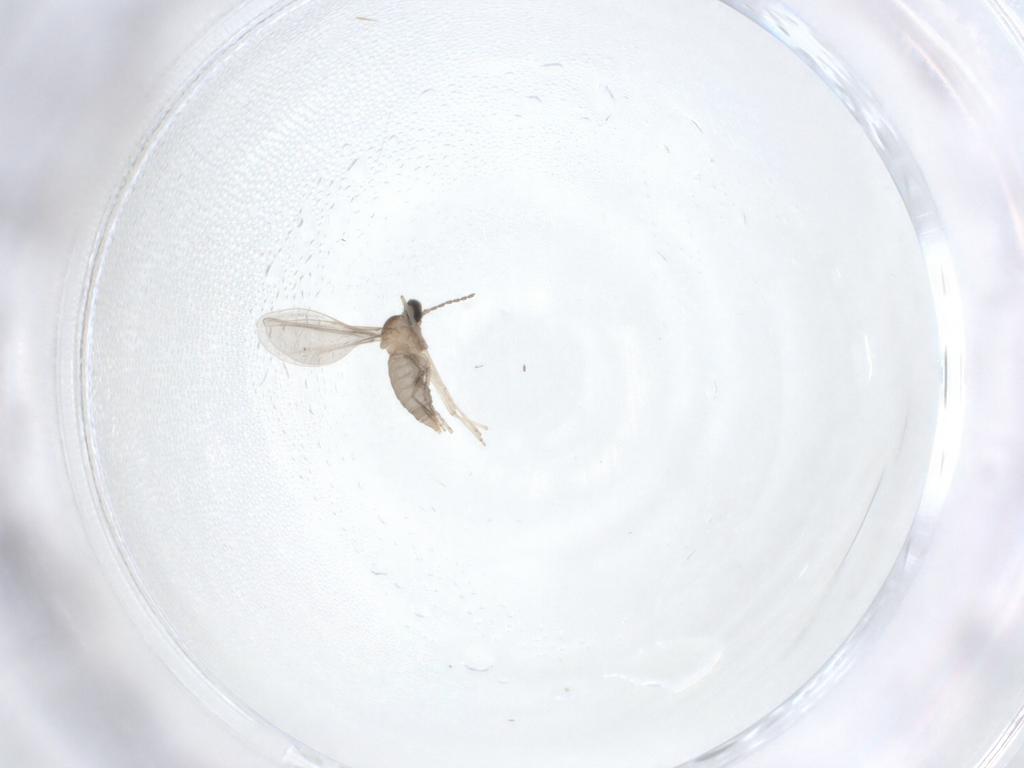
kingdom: Animalia
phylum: Arthropoda
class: Insecta
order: Diptera
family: Cecidomyiidae
